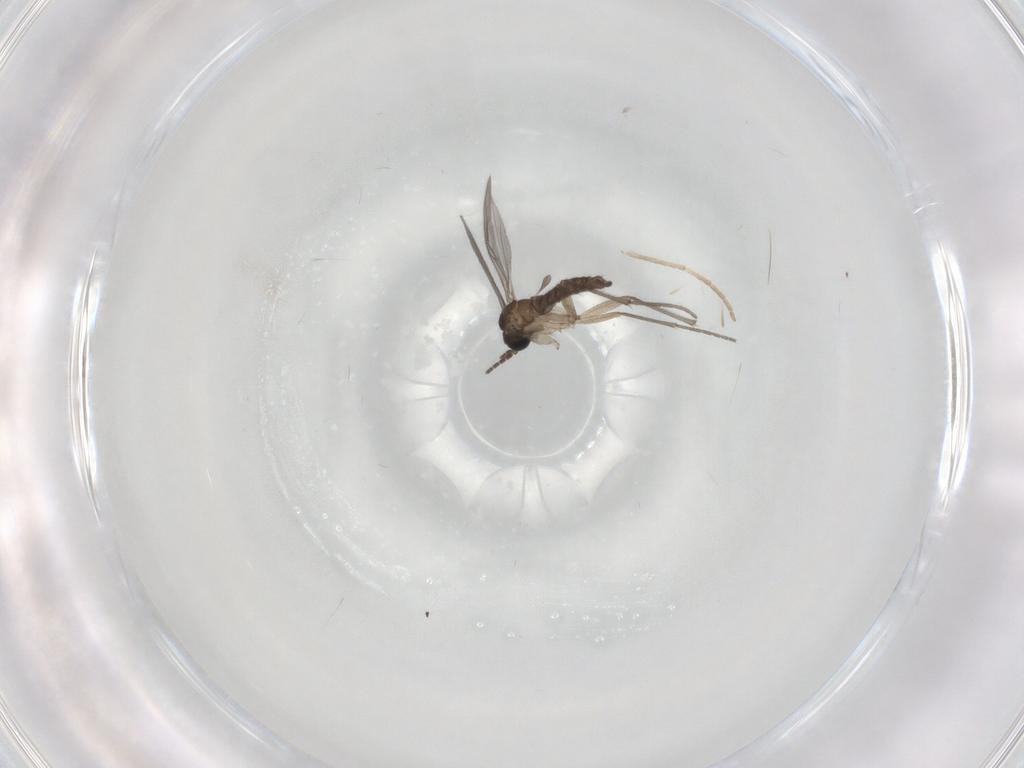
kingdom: Animalia
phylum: Arthropoda
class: Insecta
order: Diptera
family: Sciaridae
